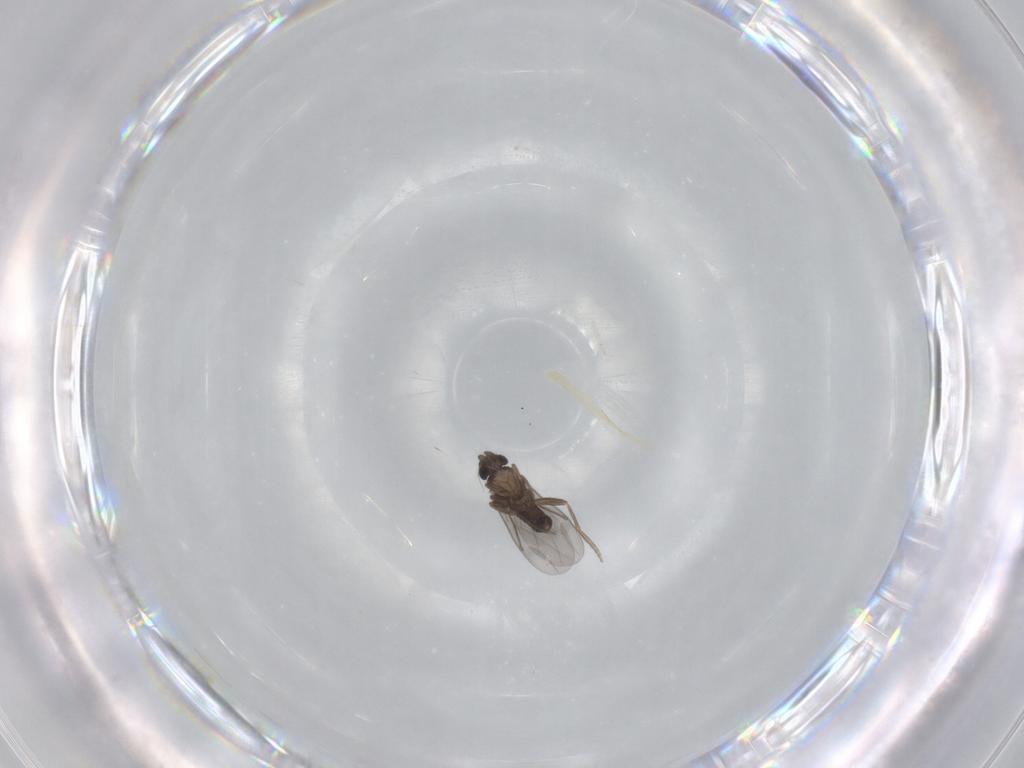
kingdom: Animalia
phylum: Arthropoda
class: Insecta
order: Diptera
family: Cecidomyiidae
